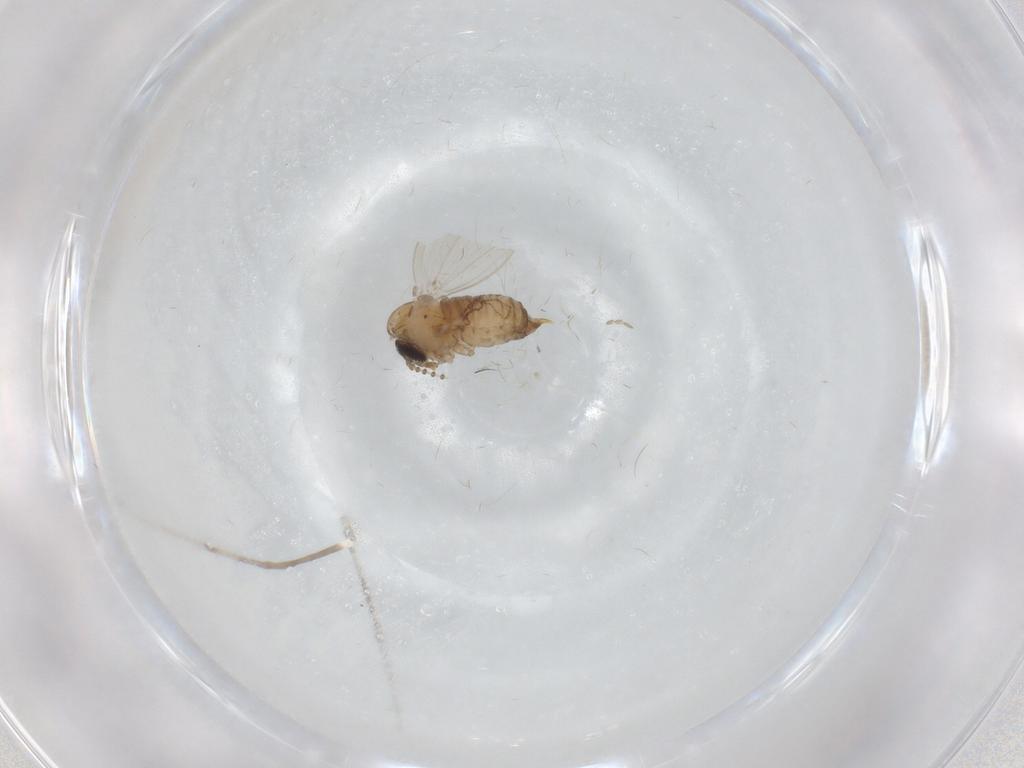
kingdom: Animalia
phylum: Arthropoda
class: Insecta
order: Diptera
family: Psychodidae
